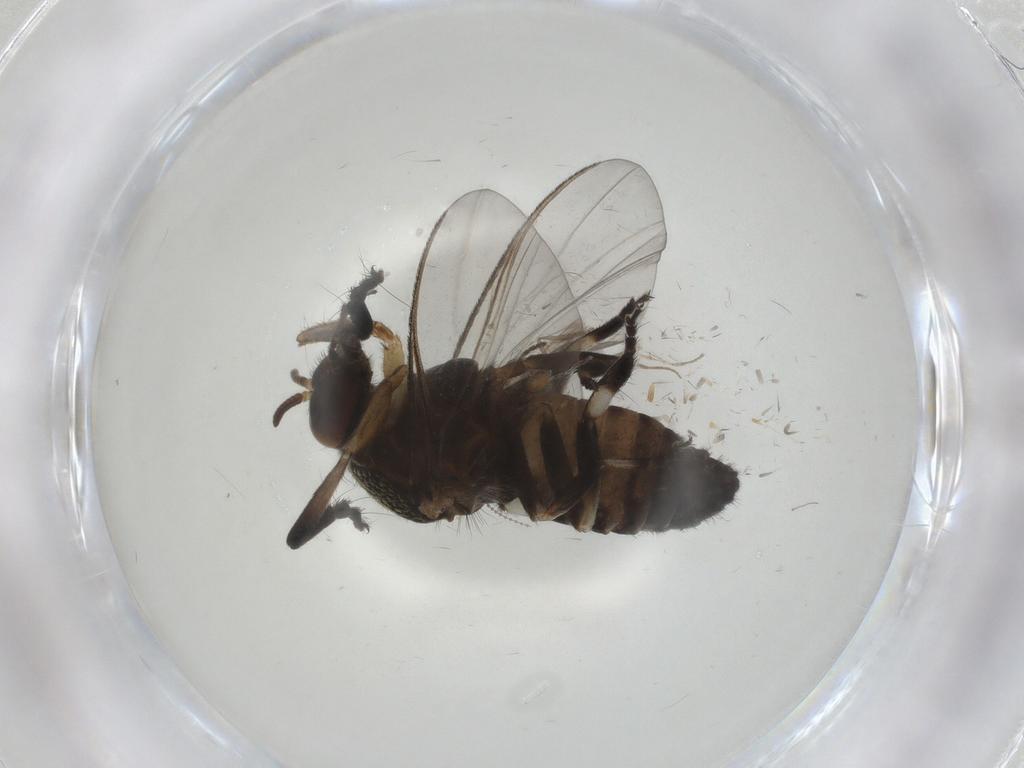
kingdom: Animalia
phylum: Arthropoda
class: Insecta
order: Diptera
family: Simuliidae
